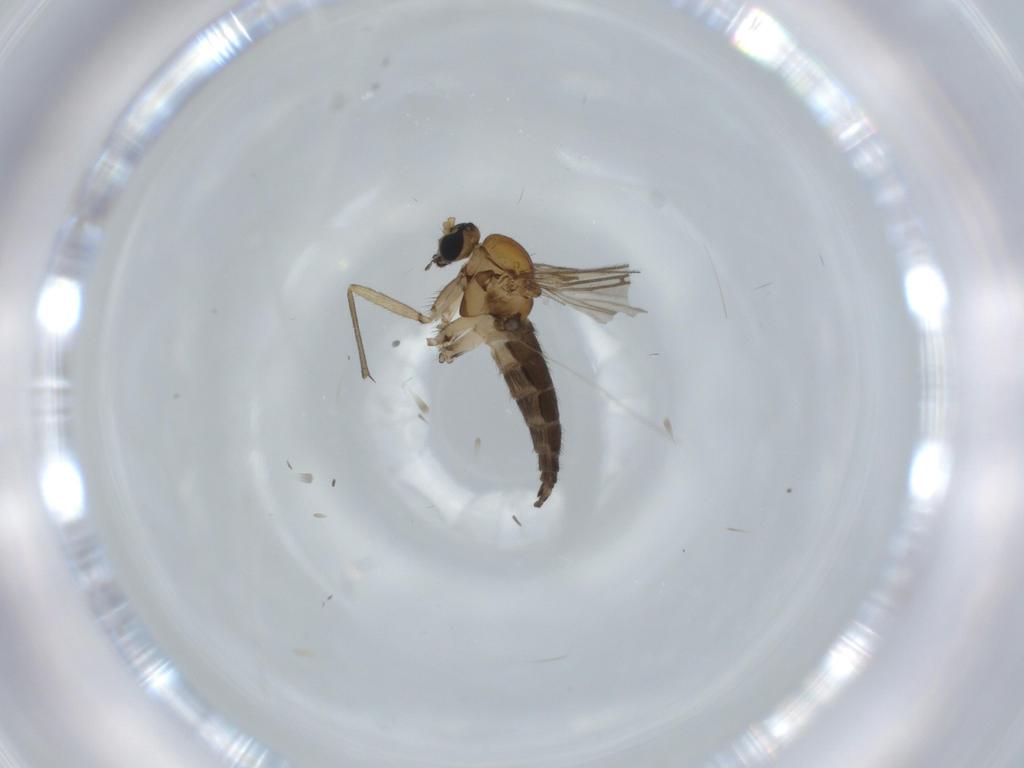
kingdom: Animalia
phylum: Arthropoda
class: Insecta
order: Diptera
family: Sciaridae
